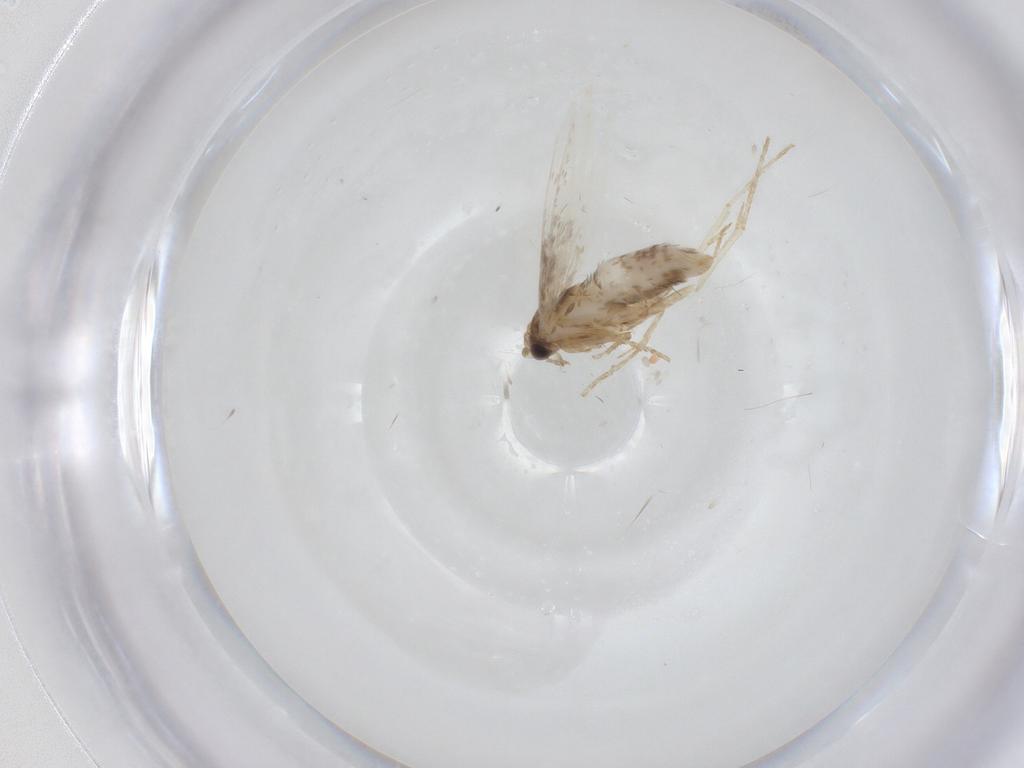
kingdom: Animalia
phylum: Arthropoda
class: Insecta
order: Lepidoptera
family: Nepticulidae
